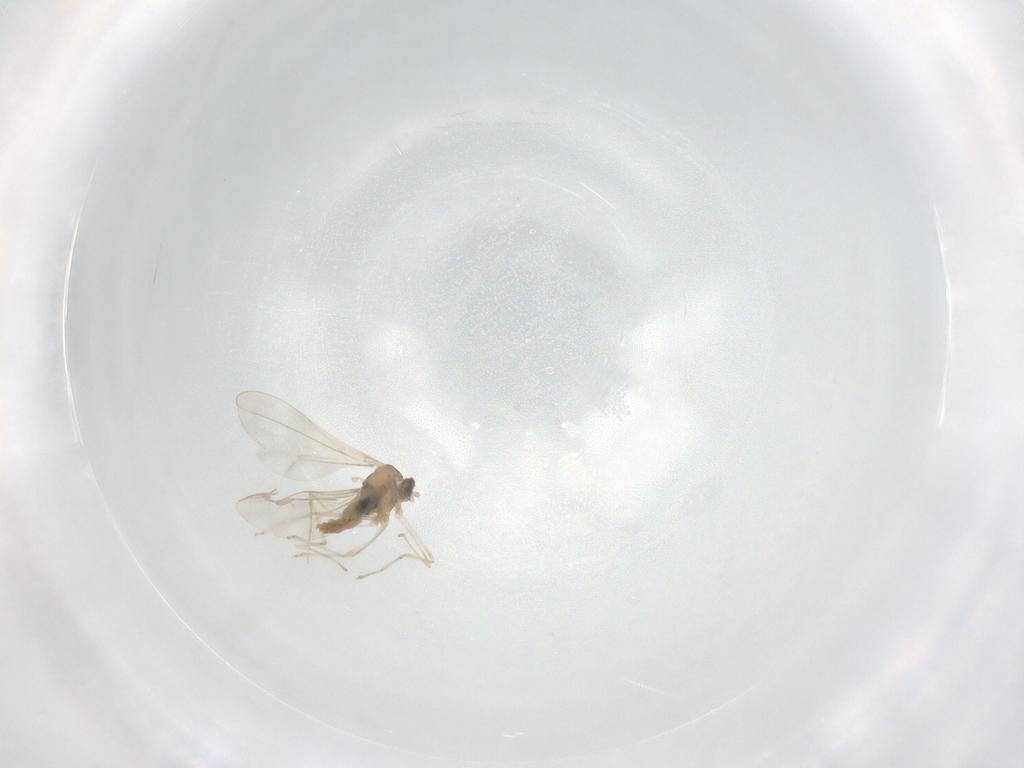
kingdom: Animalia
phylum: Arthropoda
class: Insecta
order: Diptera
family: Cecidomyiidae
